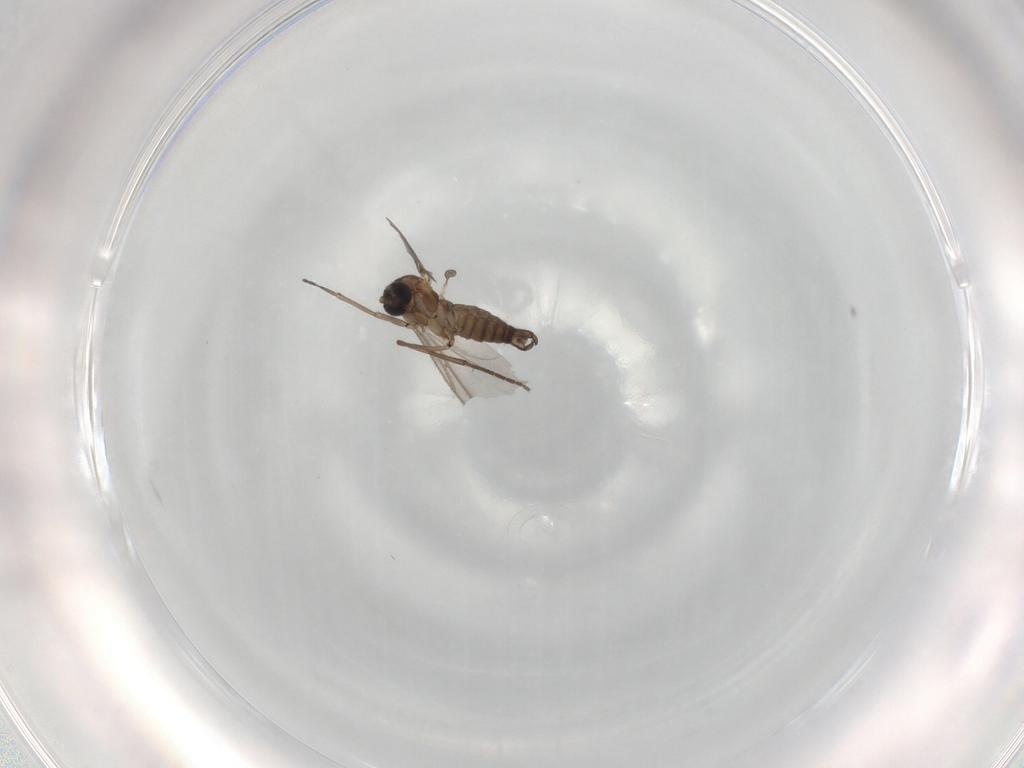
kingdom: Animalia
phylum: Arthropoda
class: Insecta
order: Diptera
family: Sciaridae
